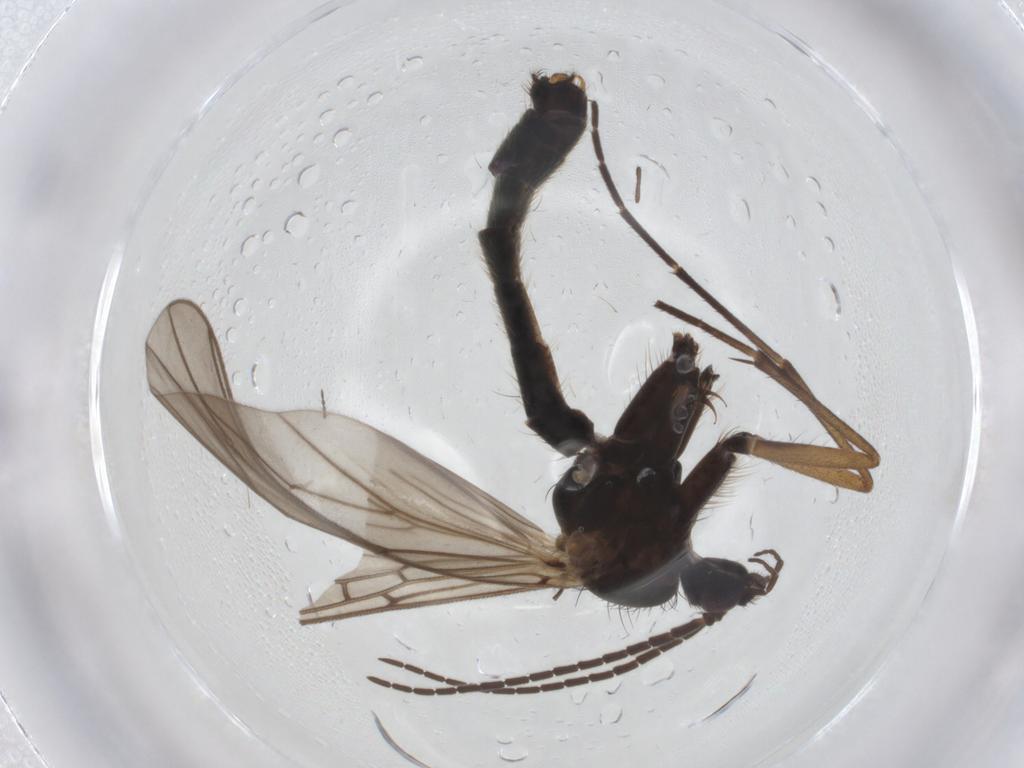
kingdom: Animalia
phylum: Arthropoda
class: Insecta
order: Diptera
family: Mycetophilidae
